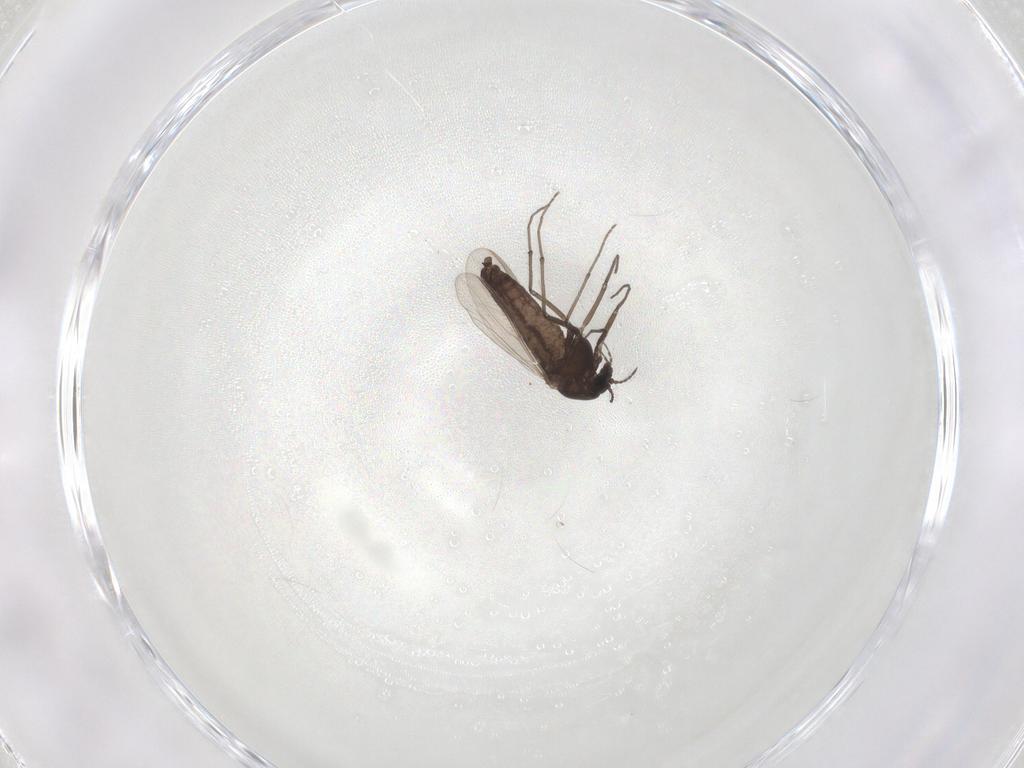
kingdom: Animalia
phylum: Arthropoda
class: Insecta
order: Diptera
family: Chironomidae
